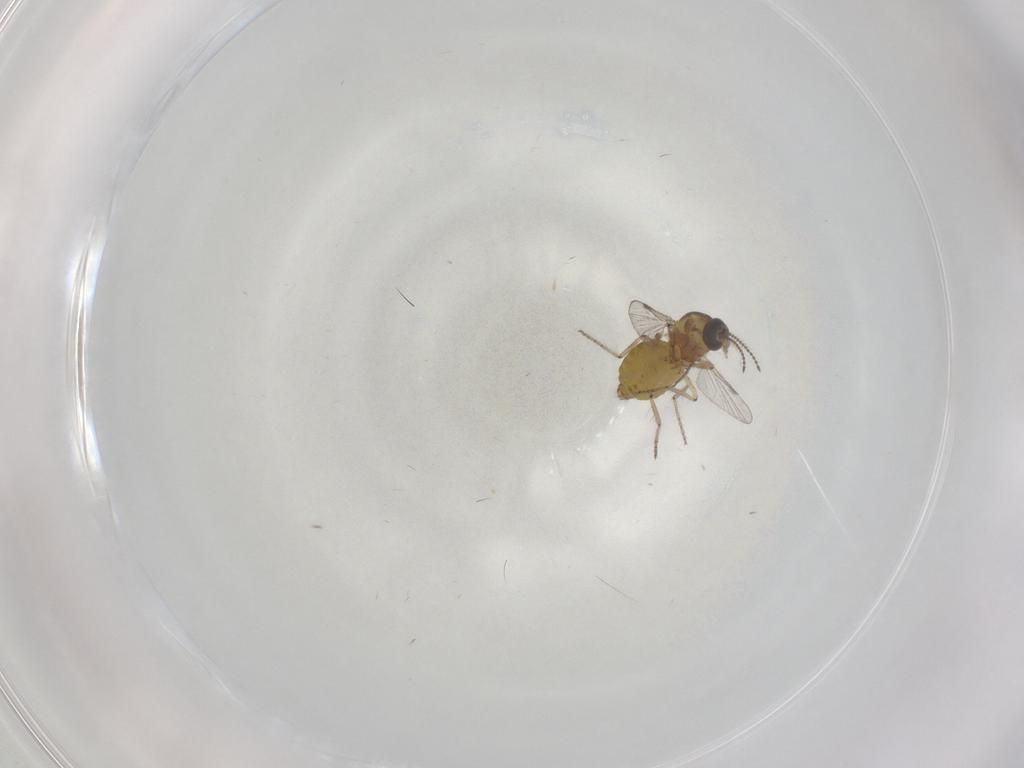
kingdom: Animalia
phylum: Arthropoda
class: Insecta
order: Diptera
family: Ceratopogonidae
